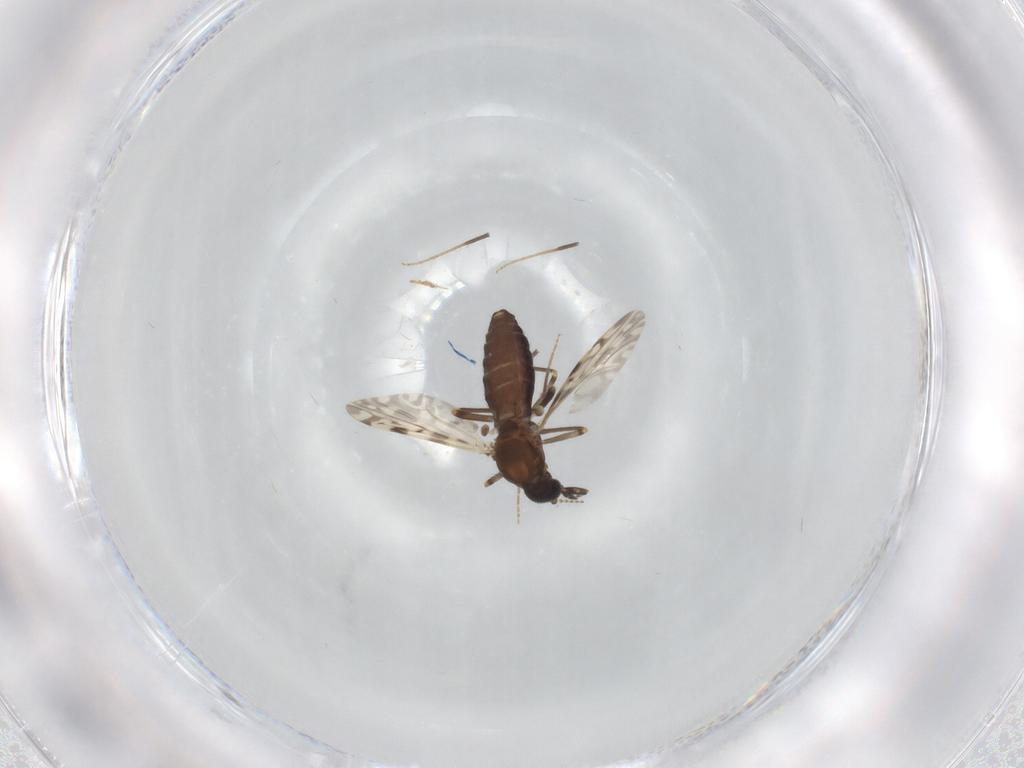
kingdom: Animalia
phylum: Arthropoda
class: Insecta
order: Diptera
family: Ceratopogonidae
